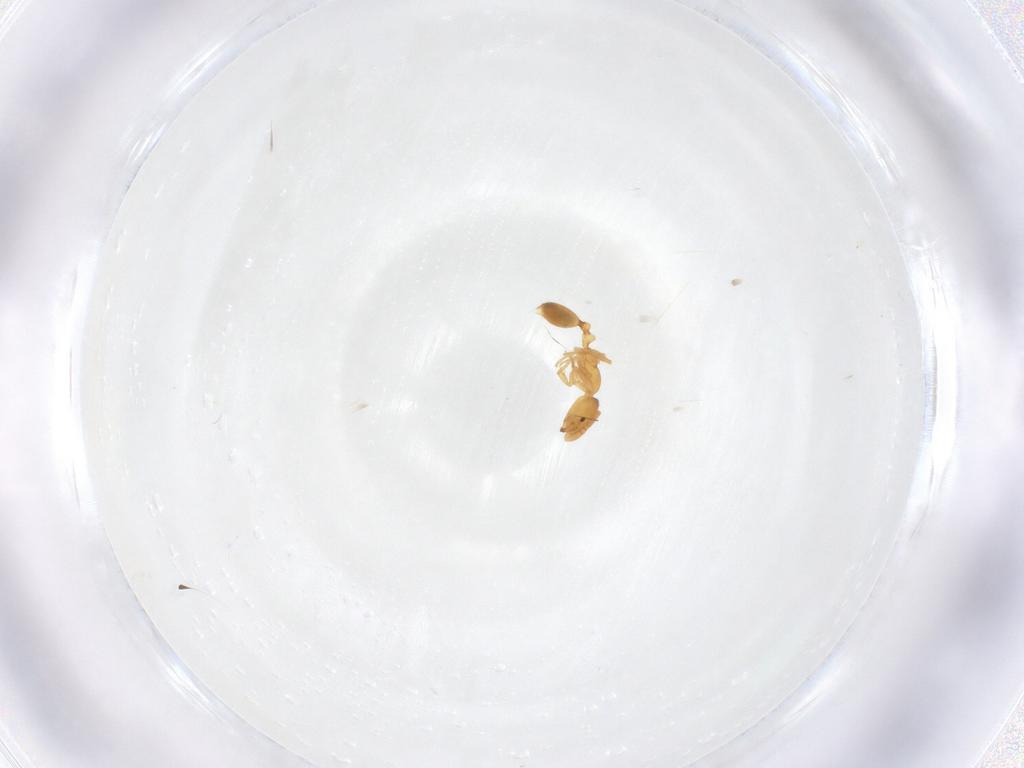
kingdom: Animalia
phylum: Arthropoda
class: Insecta
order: Hymenoptera
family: Formicidae
